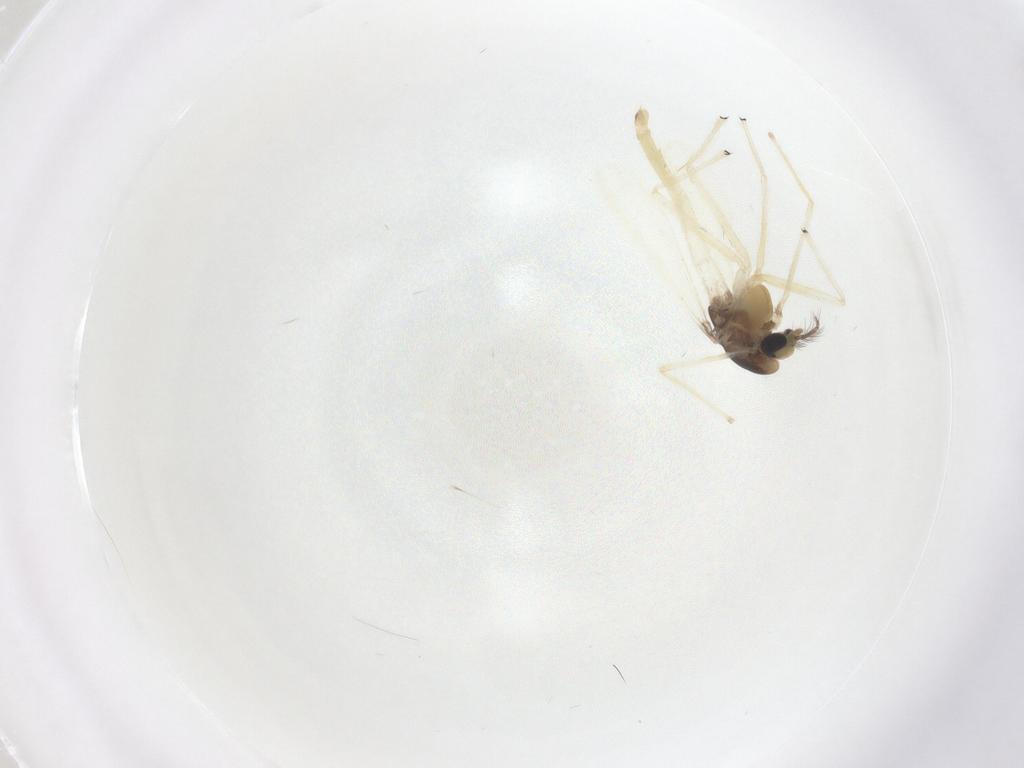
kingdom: Animalia
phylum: Arthropoda
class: Insecta
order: Diptera
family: Chironomidae
